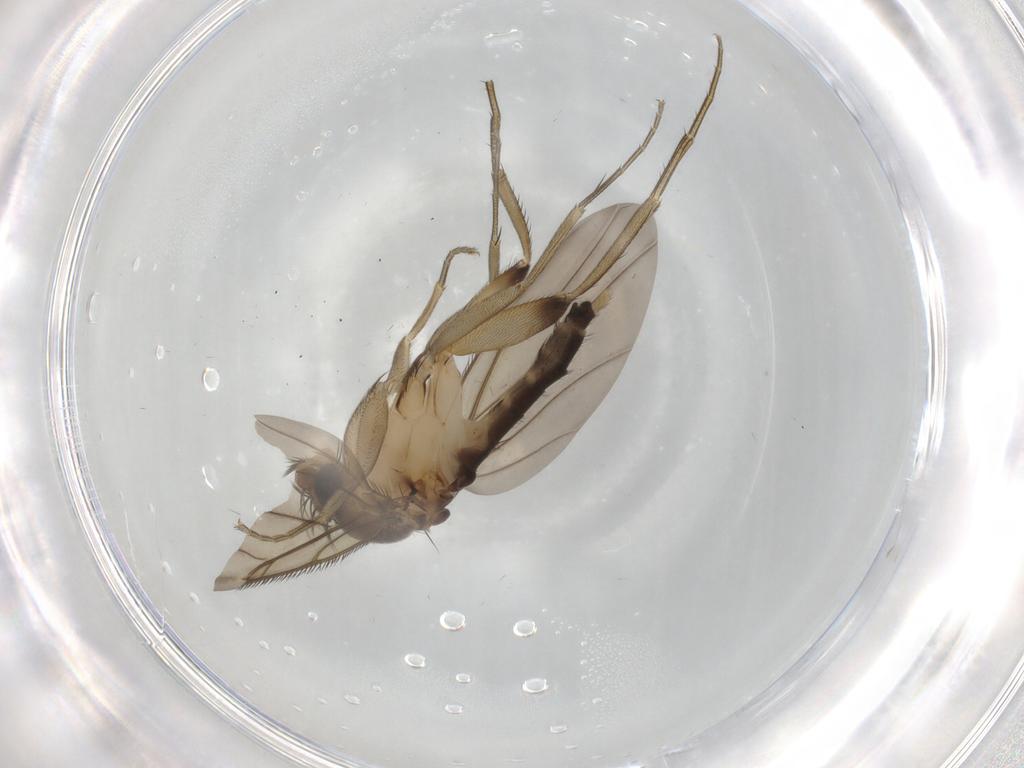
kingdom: Animalia
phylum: Arthropoda
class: Insecta
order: Diptera
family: Phoridae
